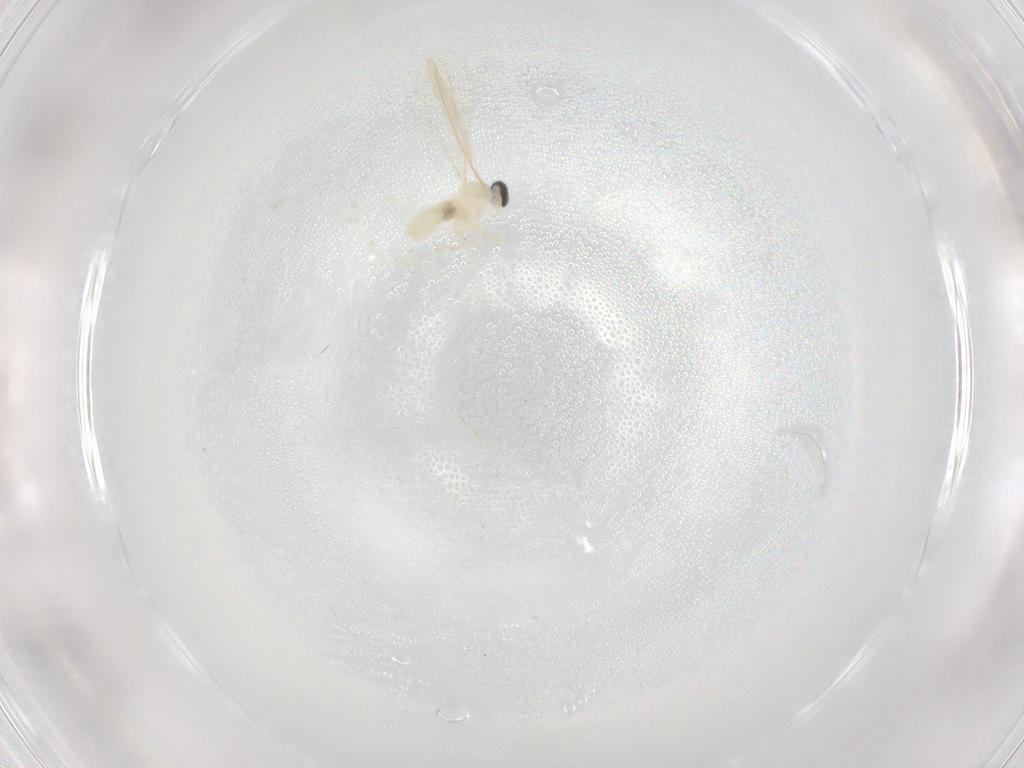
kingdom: Animalia
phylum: Arthropoda
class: Insecta
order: Diptera
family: Cecidomyiidae
